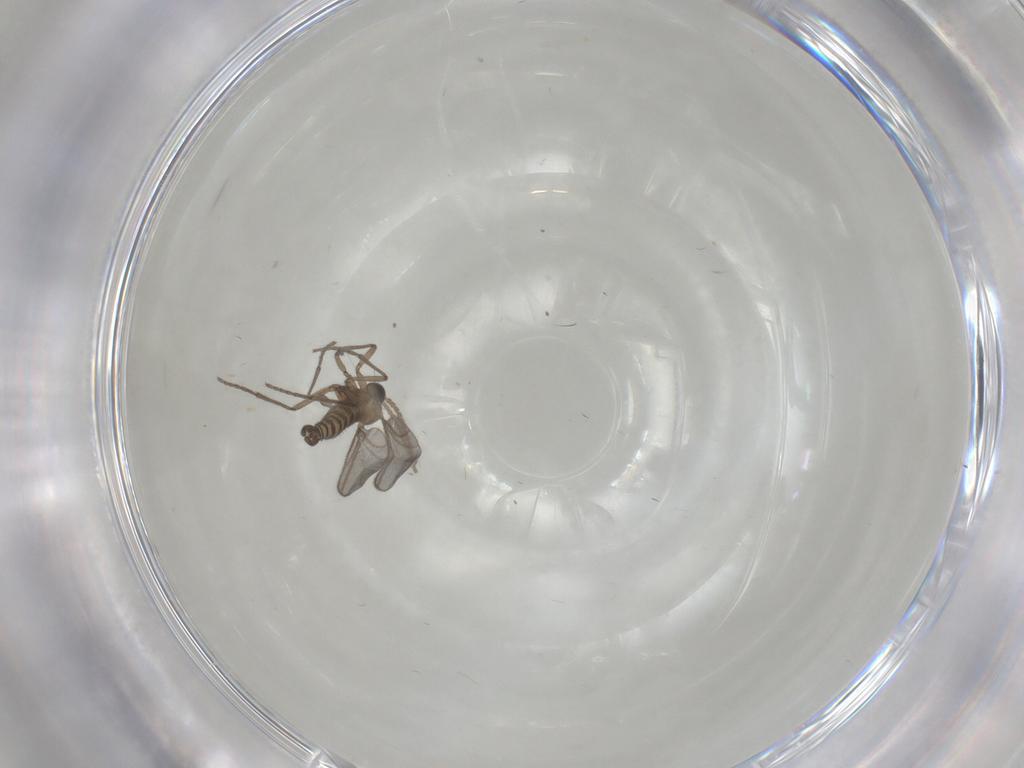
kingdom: Animalia
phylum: Arthropoda
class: Insecta
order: Diptera
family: Sciaridae
